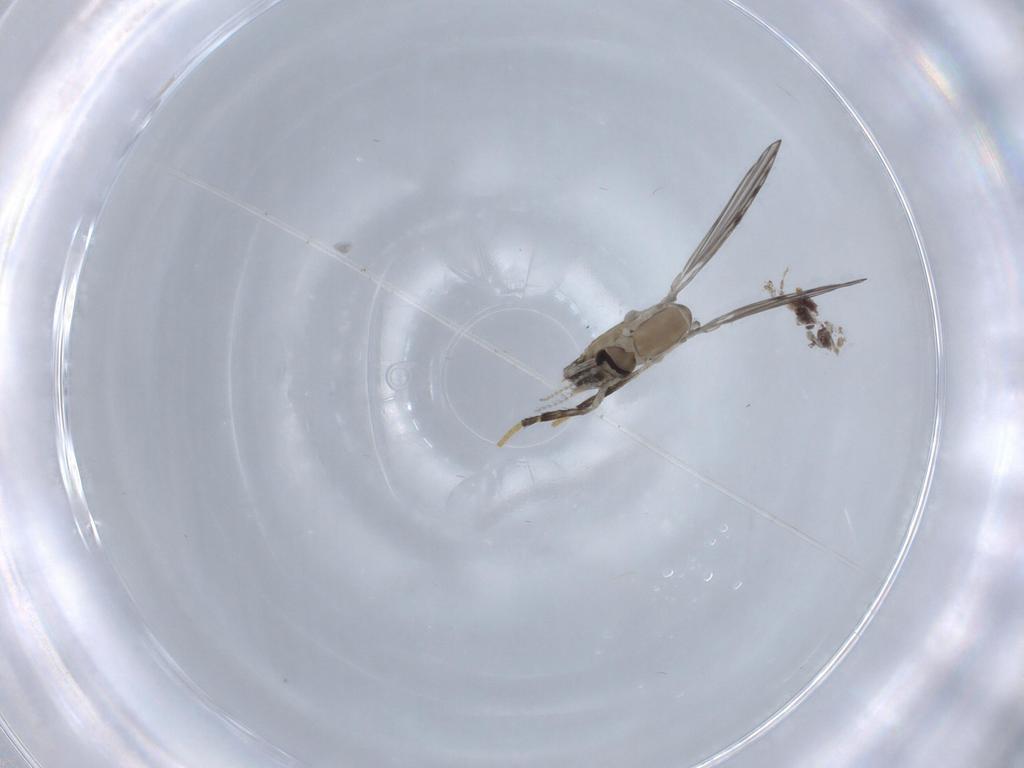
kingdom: Animalia
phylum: Arthropoda
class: Insecta
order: Diptera
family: Psychodidae
